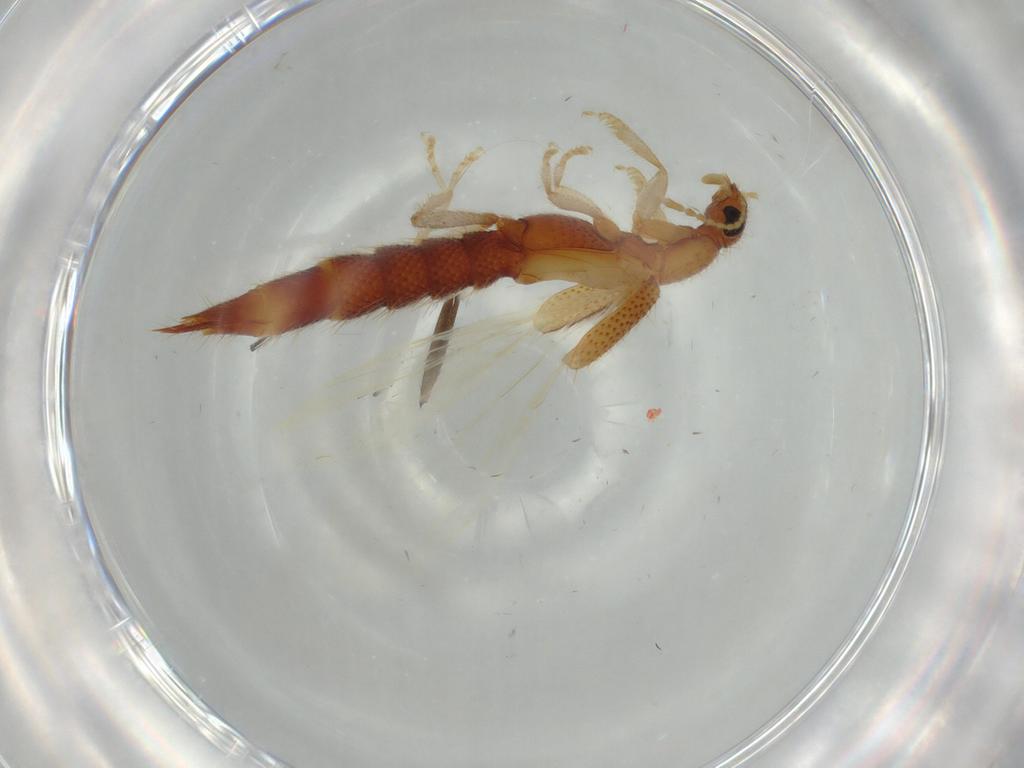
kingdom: Animalia
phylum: Arthropoda
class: Insecta
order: Coleoptera
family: Staphylinidae
